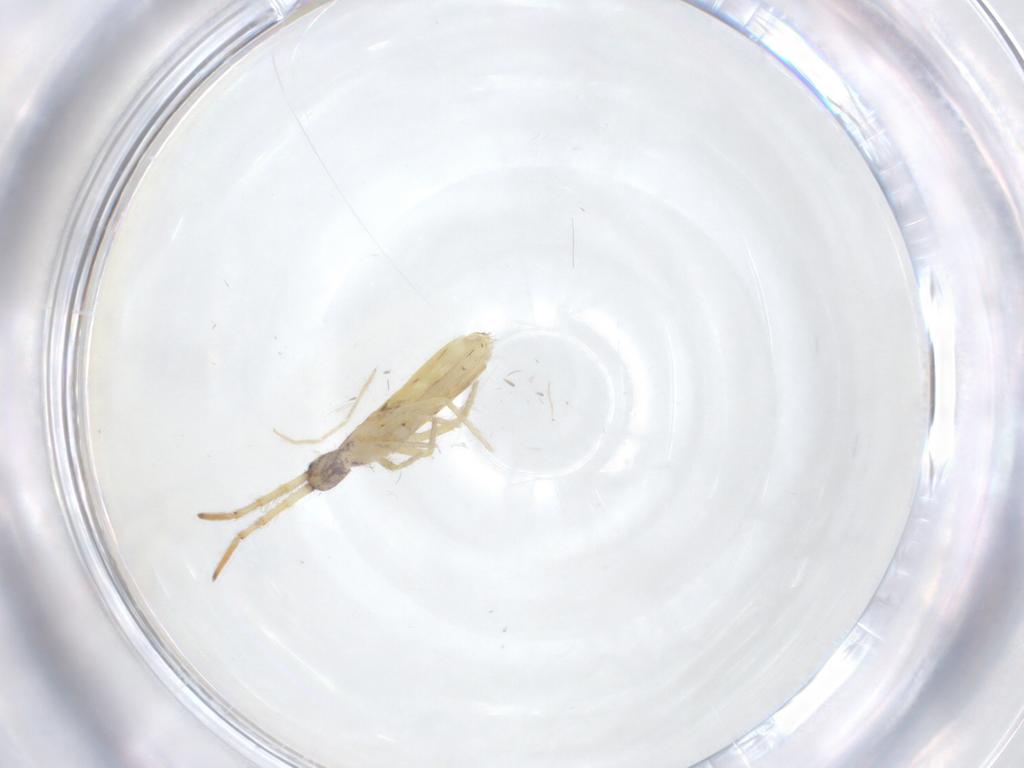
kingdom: Animalia
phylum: Arthropoda
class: Collembola
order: Entomobryomorpha
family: Entomobryidae
